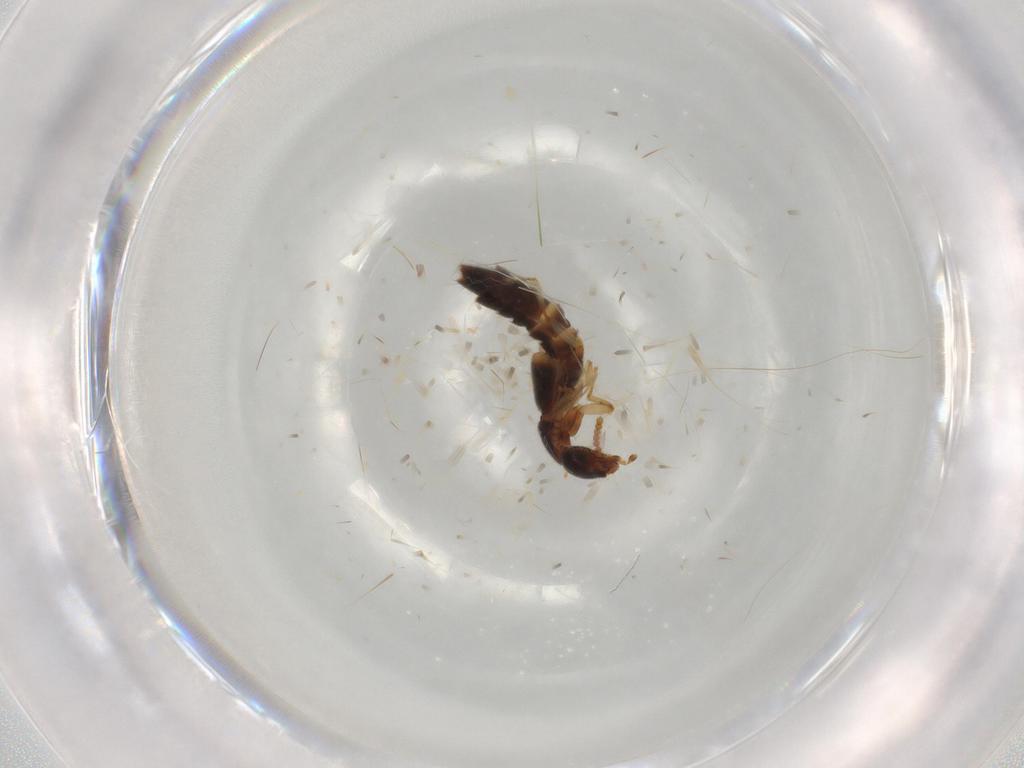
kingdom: Animalia
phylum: Arthropoda
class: Insecta
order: Coleoptera
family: Staphylinidae
